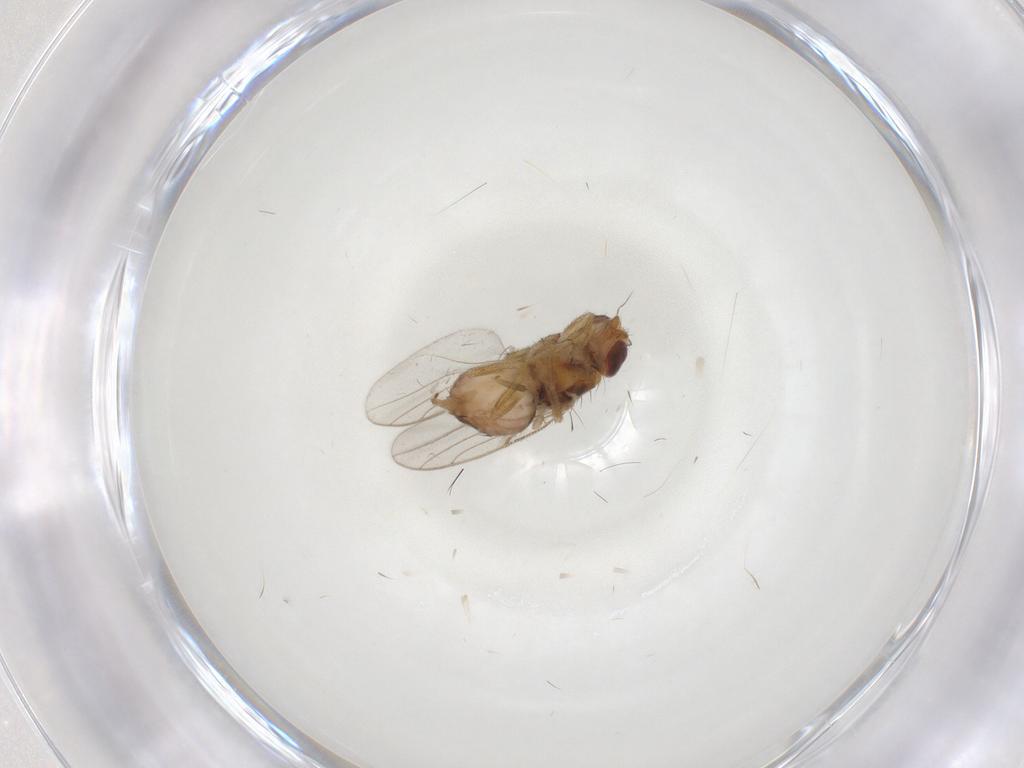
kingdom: Animalia
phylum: Arthropoda
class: Insecta
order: Diptera
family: Chloropidae
